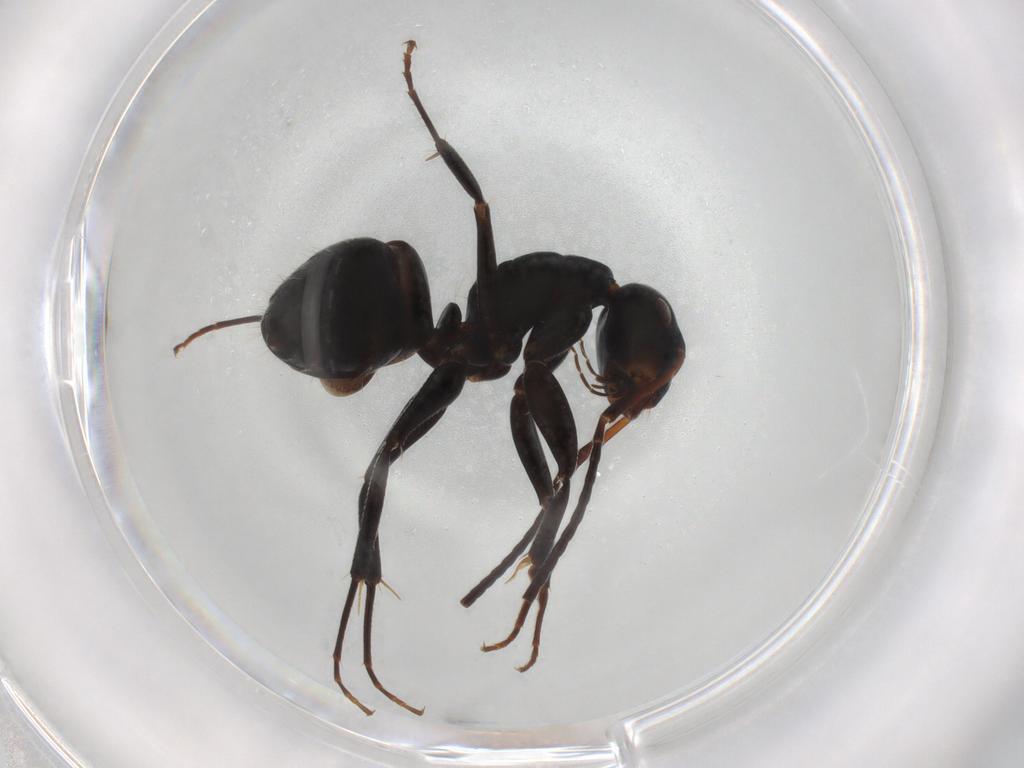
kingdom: Animalia
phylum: Arthropoda
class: Insecta
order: Hymenoptera
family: Formicidae
